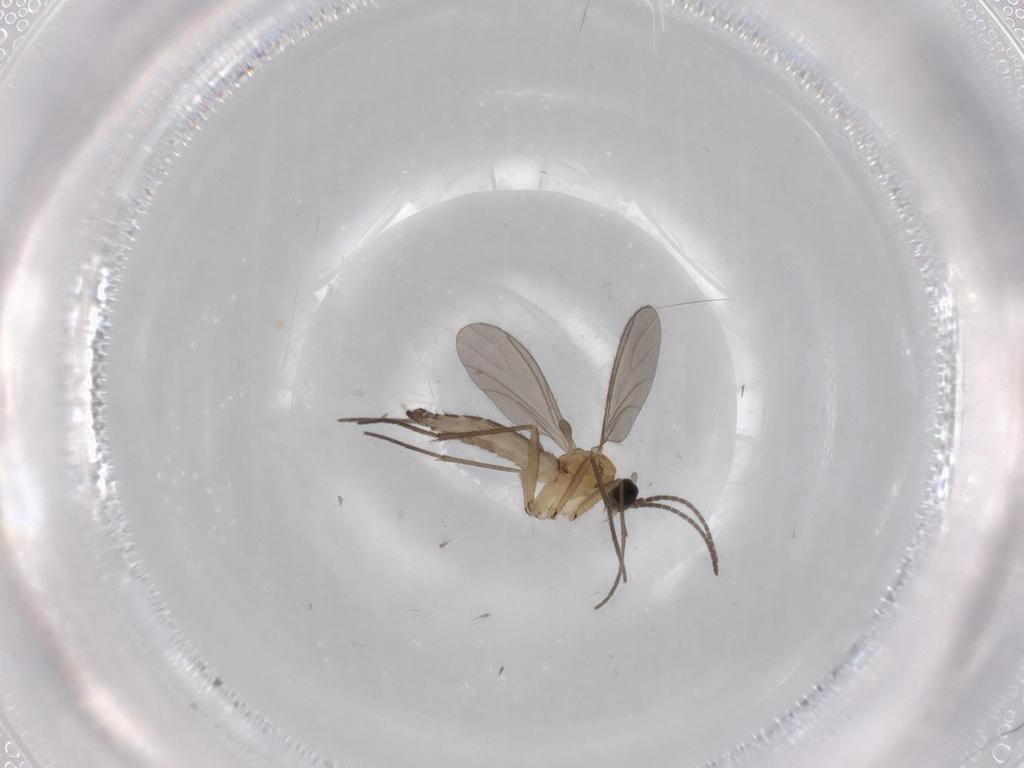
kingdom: Animalia
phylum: Arthropoda
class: Insecta
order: Diptera
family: Sciaridae
